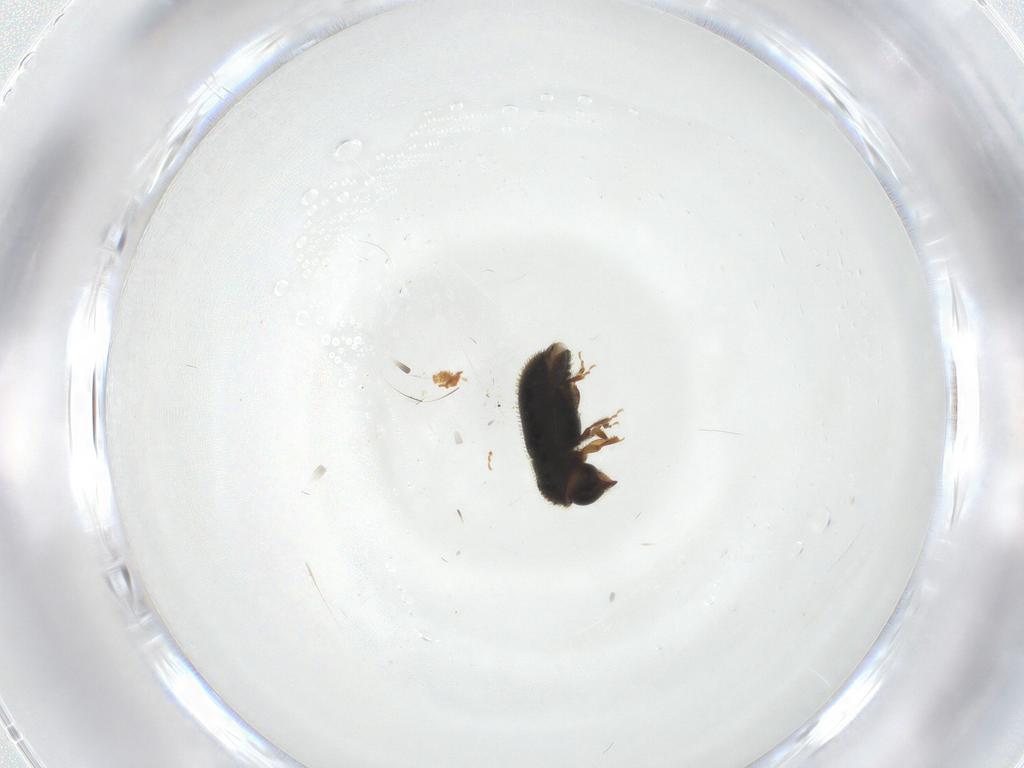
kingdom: Animalia
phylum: Arthropoda
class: Insecta
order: Coleoptera
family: Curculionidae
